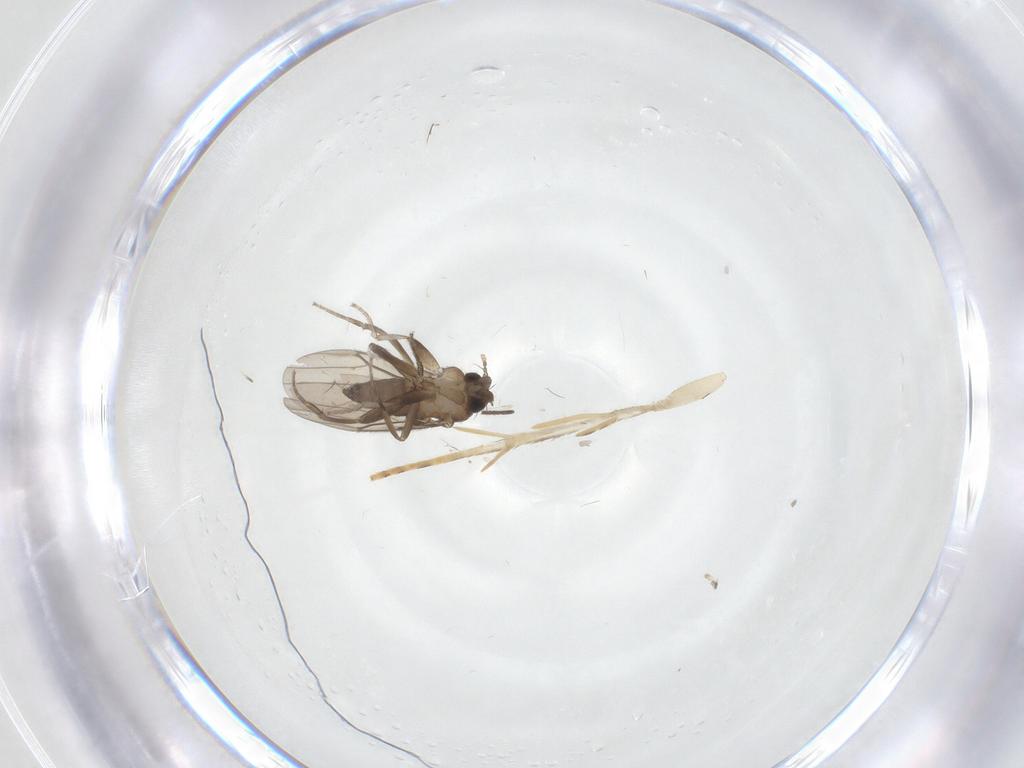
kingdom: Animalia
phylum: Arthropoda
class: Insecta
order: Diptera
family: Phoridae
